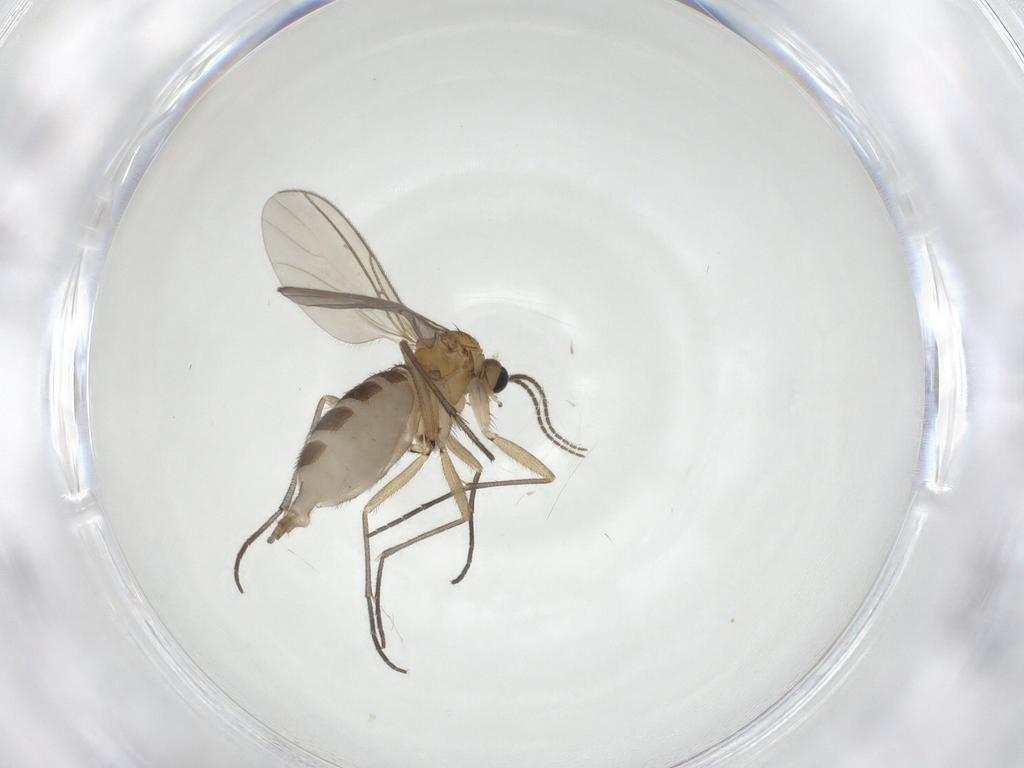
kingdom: Animalia
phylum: Arthropoda
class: Insecta
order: Diptera
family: Sciaridae
